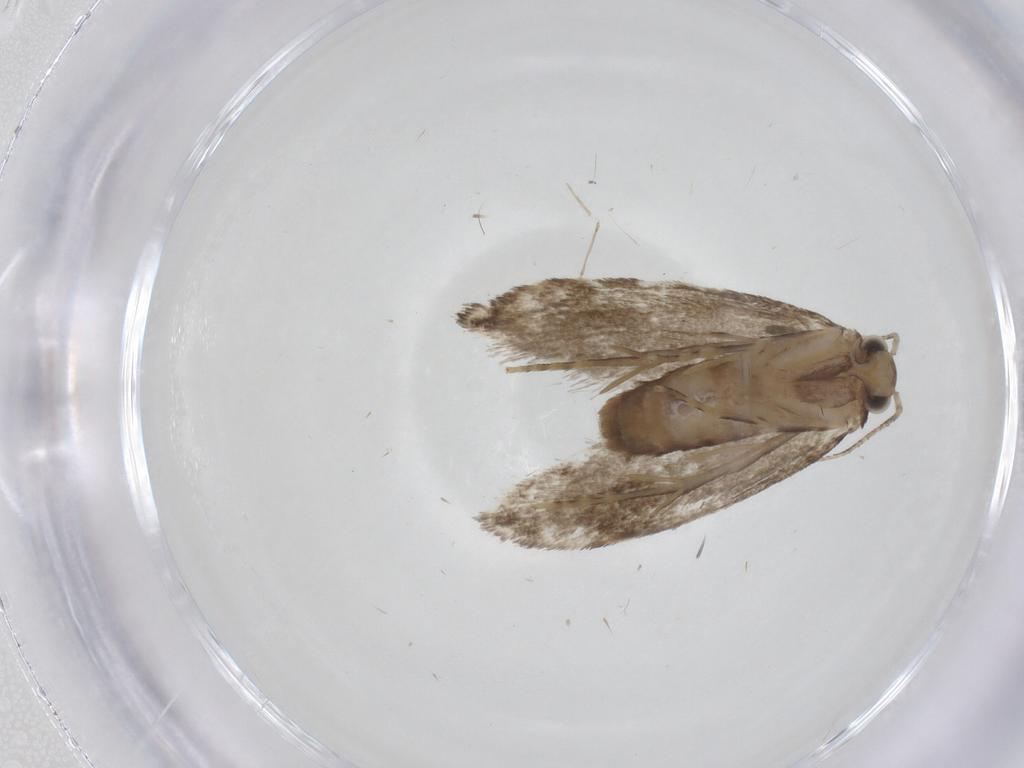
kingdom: Animalia
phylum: Arthropoda
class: Insecta
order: Lepidoptera
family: Tineidae
